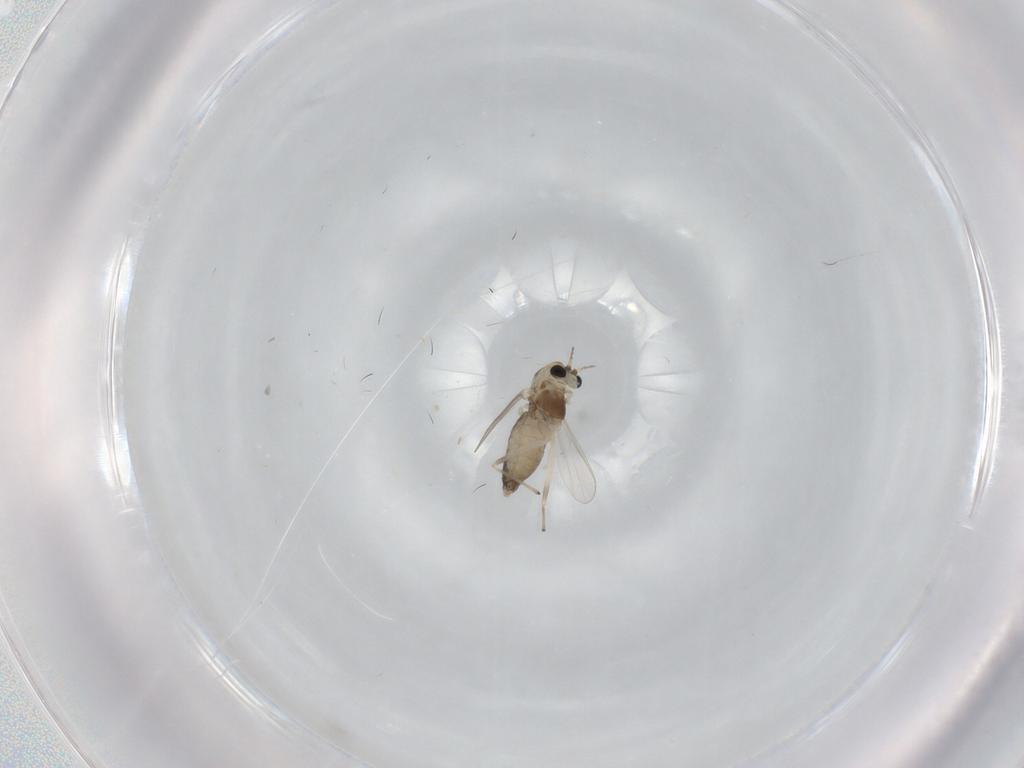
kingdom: Animalia
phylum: Arthropoda
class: Insecta
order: Diptera
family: Chironomidae
